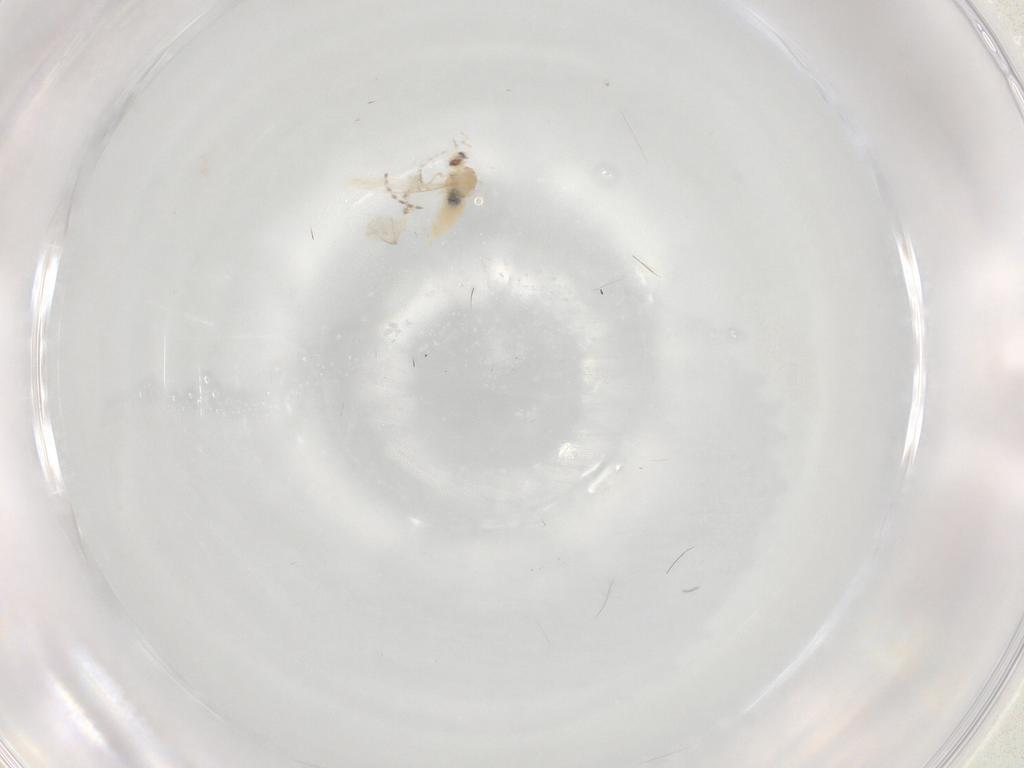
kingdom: Animalia
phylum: Arthropoda
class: Insecta
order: Diptera
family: Cecidomyiidae
